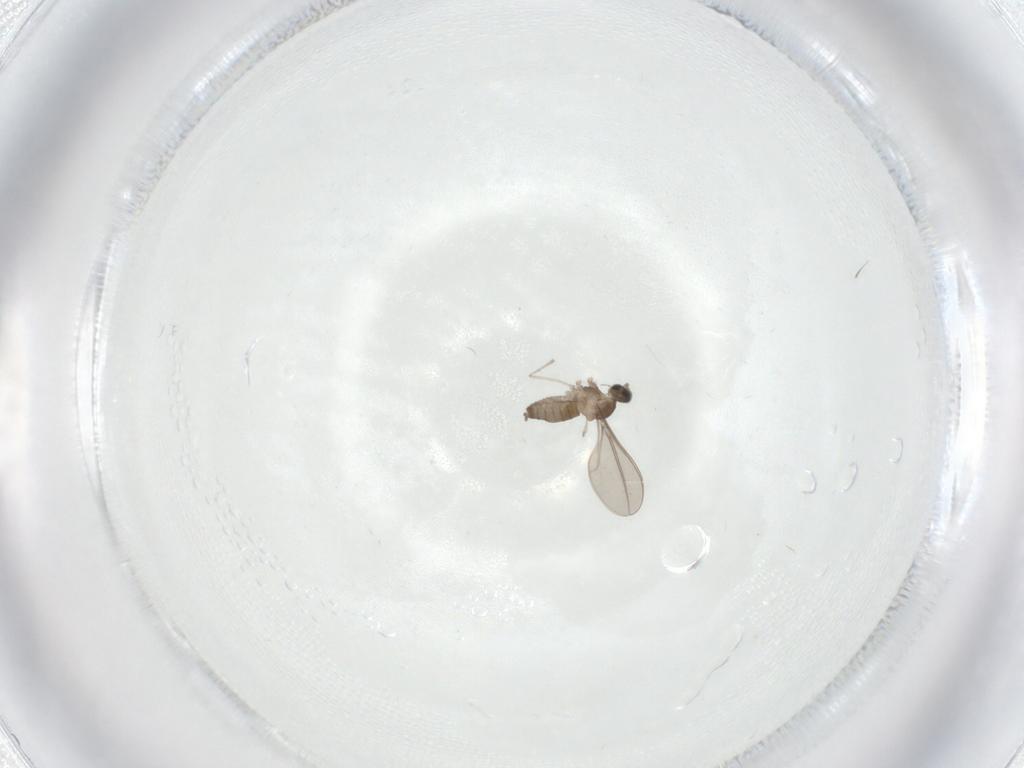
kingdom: Animalia
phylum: Arthropoda
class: Insecta
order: Diptera
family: Cecidomyiidae
